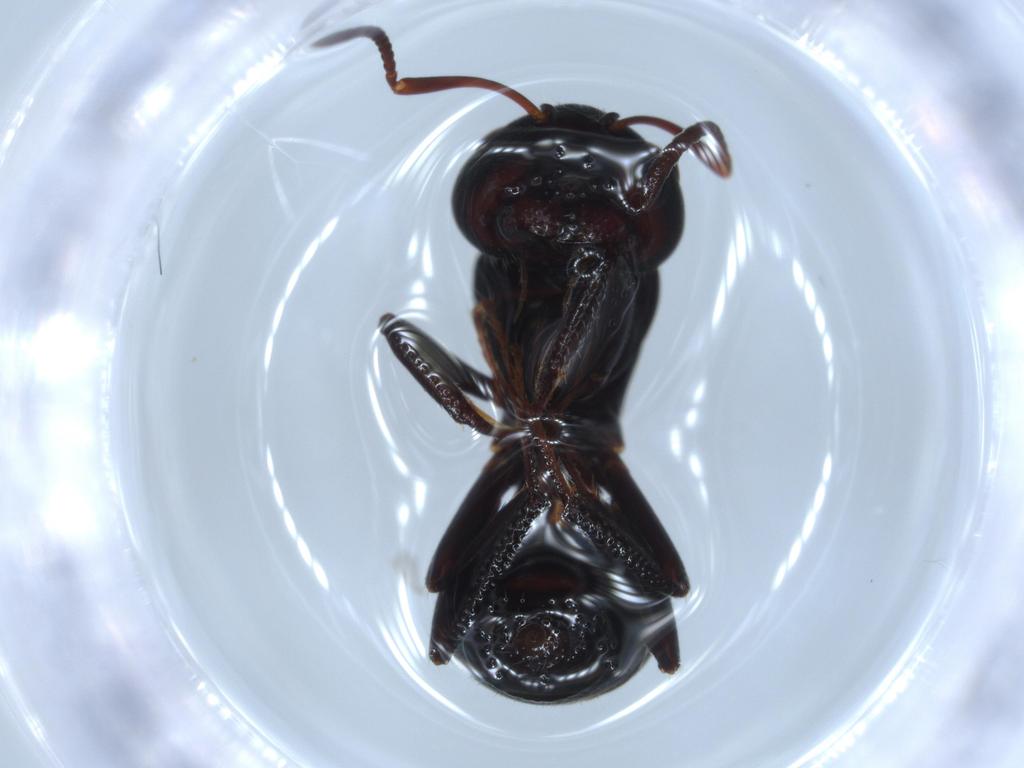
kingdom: Animalia
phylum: Arthropoda
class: Insecta
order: Hymenoptera
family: Formicidae
